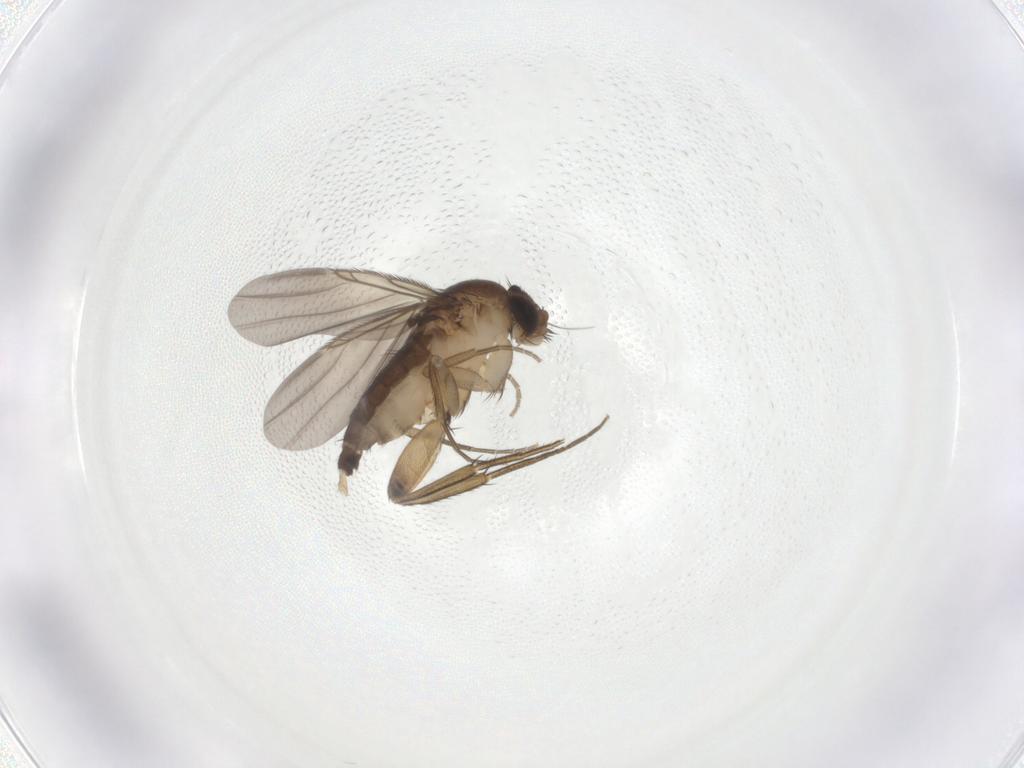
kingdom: Animalia
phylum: Arthropoda
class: Insecta
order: Diptera
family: Phoridae
